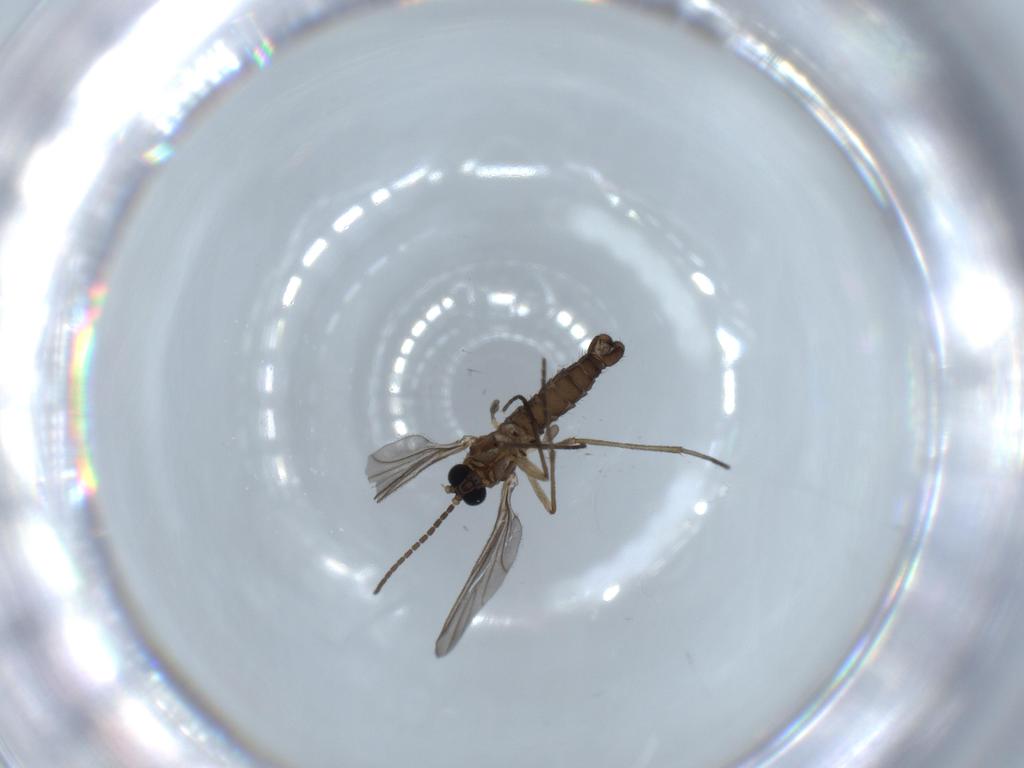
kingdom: Animalia
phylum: Arthropoda
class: Insecta
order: Diptera
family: Sciaridae
